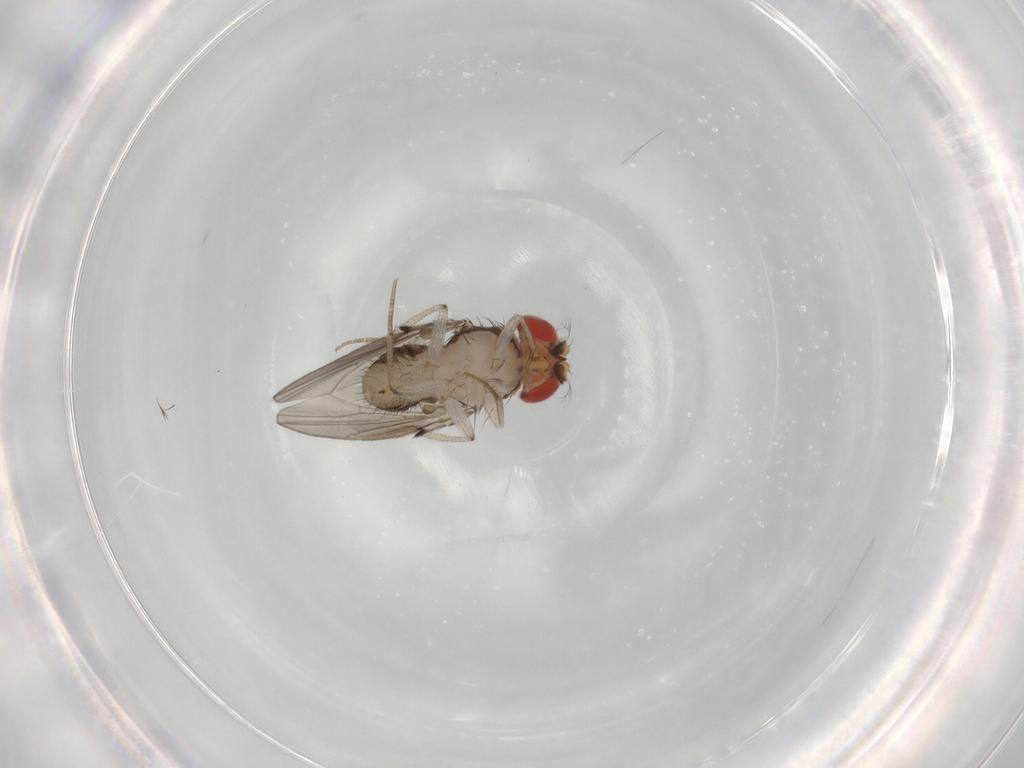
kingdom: Animalia
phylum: Arthropoda
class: Insecta
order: Diptera
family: Drosophilidae
